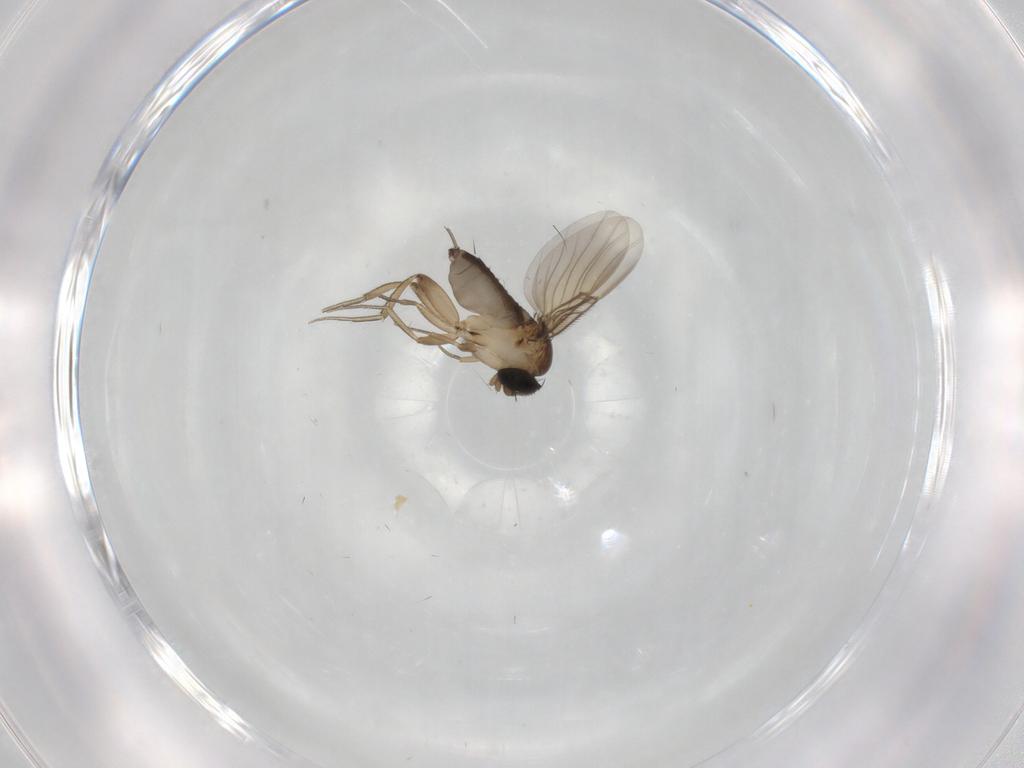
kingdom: Animalia
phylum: Arthropoda
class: Insecta
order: Diptera
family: Phoridae
